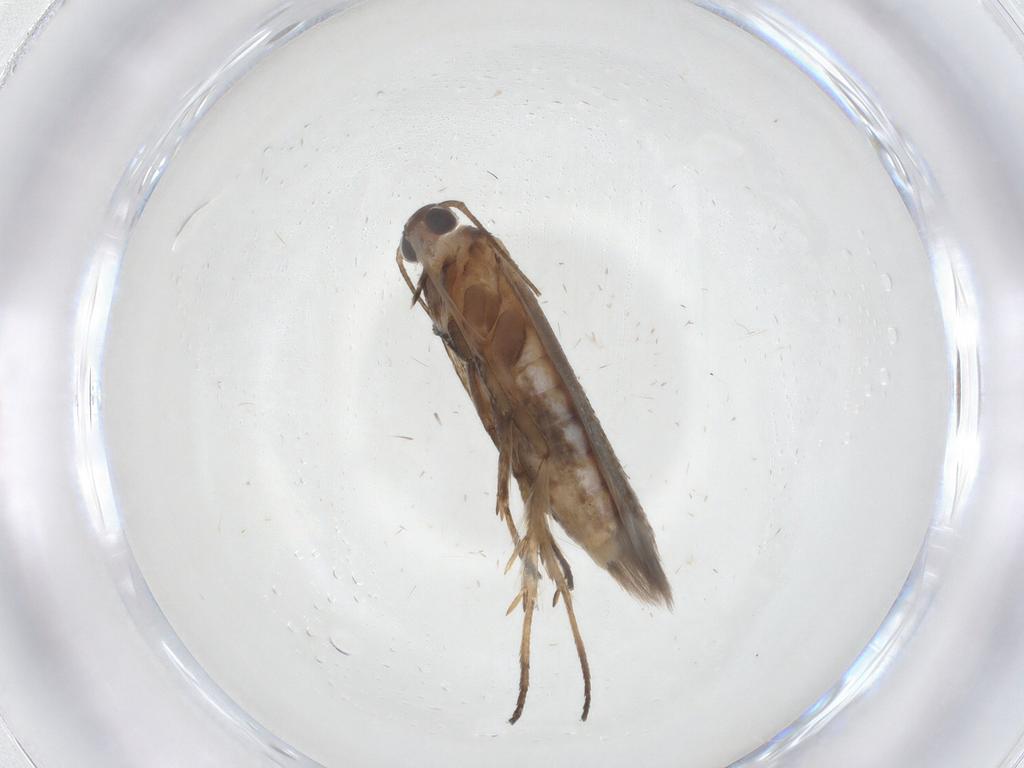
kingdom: Animalia
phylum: Arthropoda
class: Insecta
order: Lepidoptera
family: Cosmopterigidae
